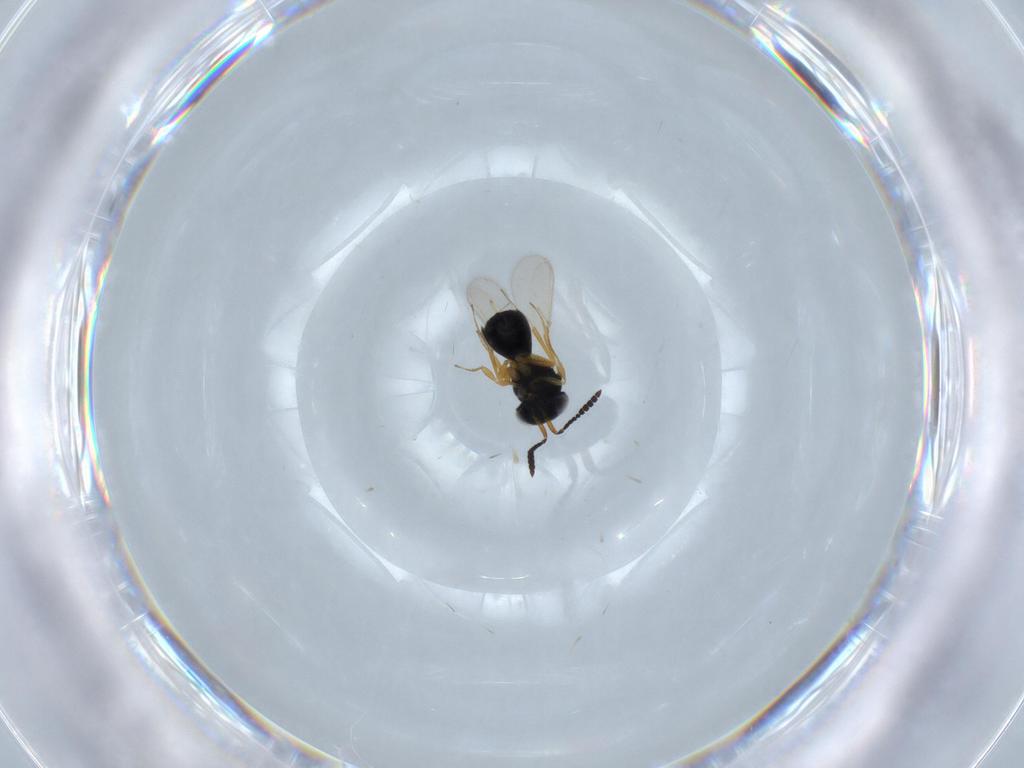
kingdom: Animalia
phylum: Arthropoda
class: Insecta
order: Hymenoptera
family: Scelionidae
